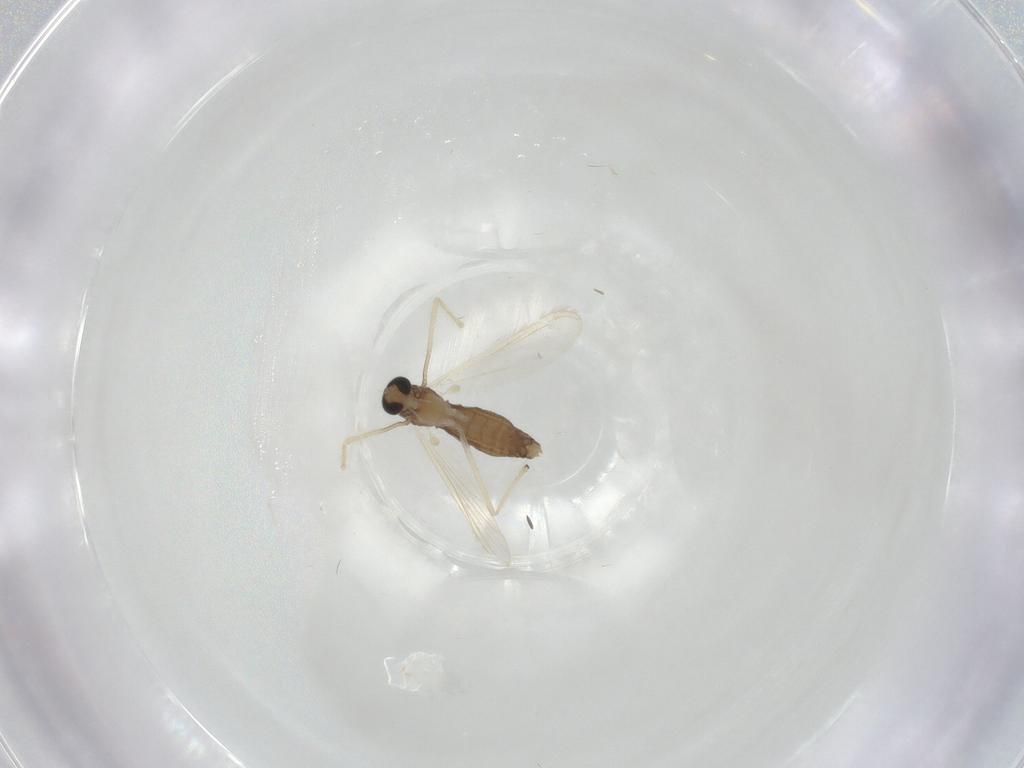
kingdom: Animalia
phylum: Arthropoda
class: Insecta
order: Diptera
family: Chironomidae
